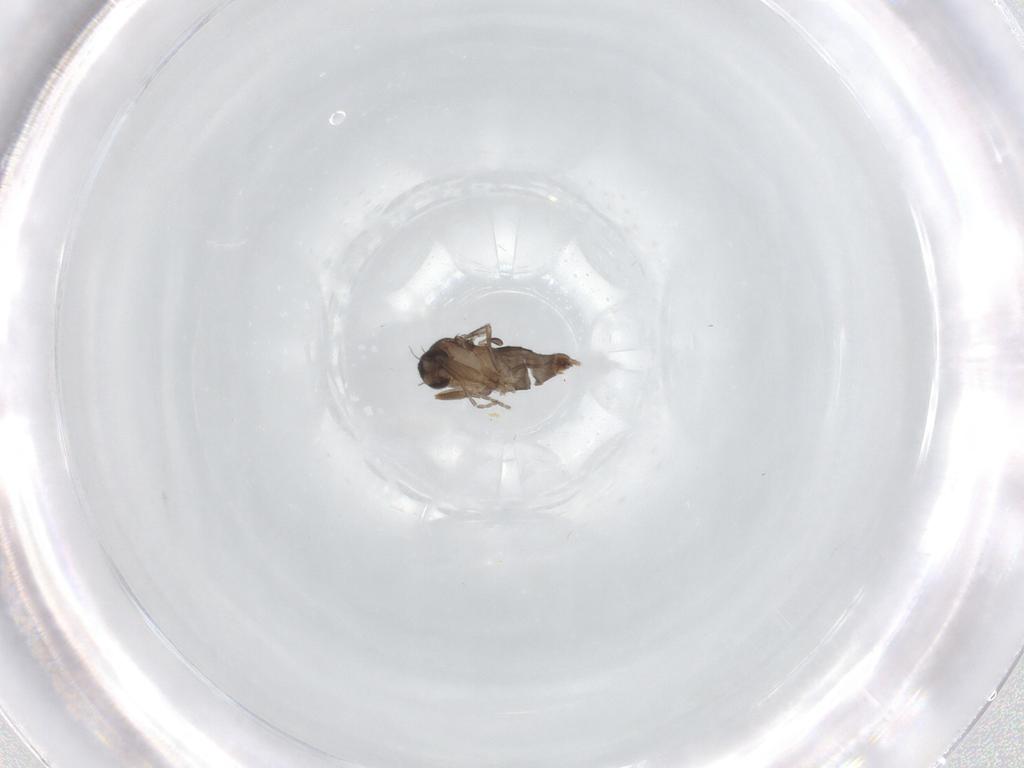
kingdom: Animalia
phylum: Arthropoda
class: Insecta
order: Diptera
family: Phoridae
